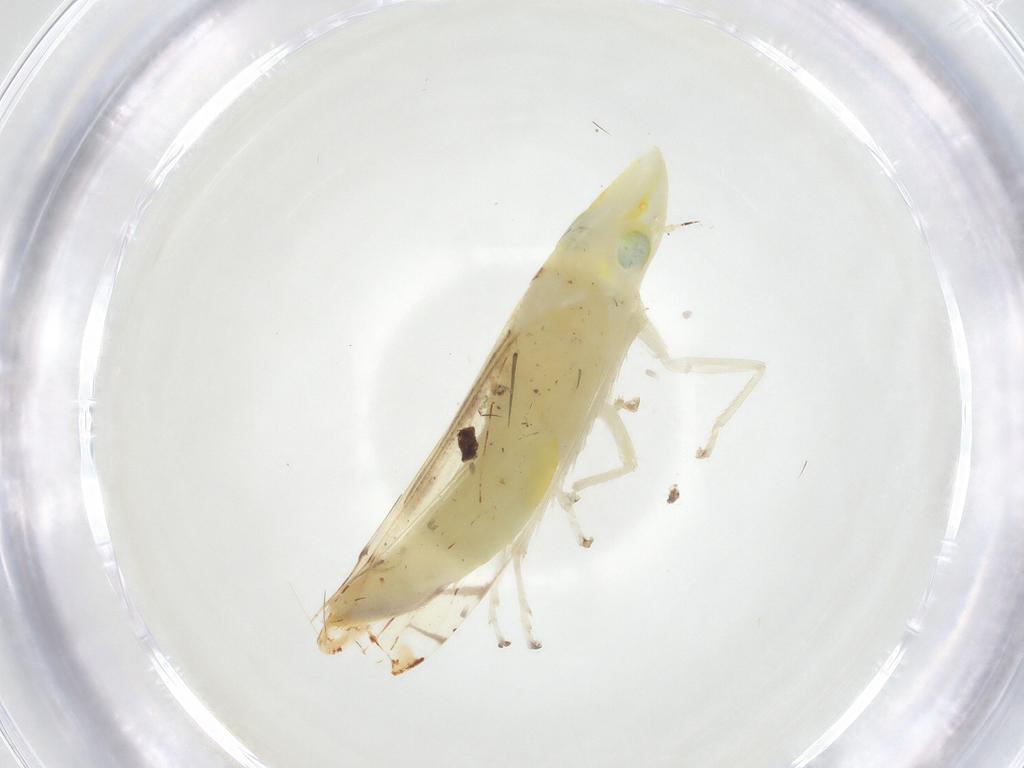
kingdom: Animalia
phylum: Arthropoda
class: Insecta
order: Hemiptera
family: Cicadellidae
